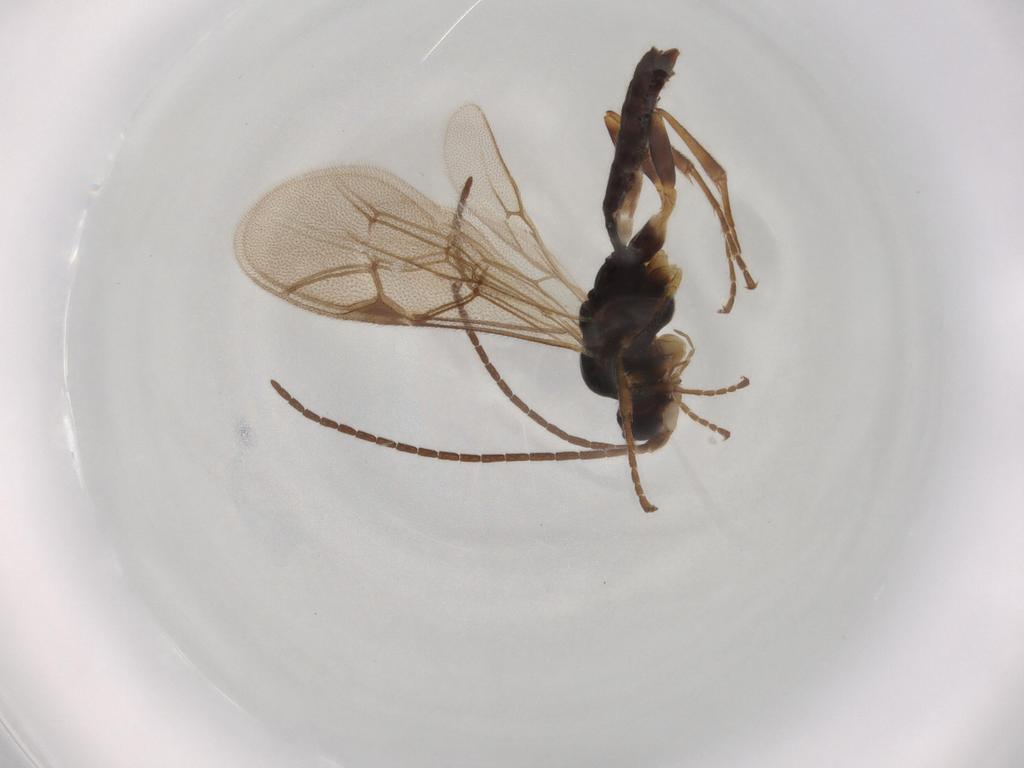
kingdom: Animalia
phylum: Arthropoda
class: Insecta
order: Hymenoptera
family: Ichneumonidae
